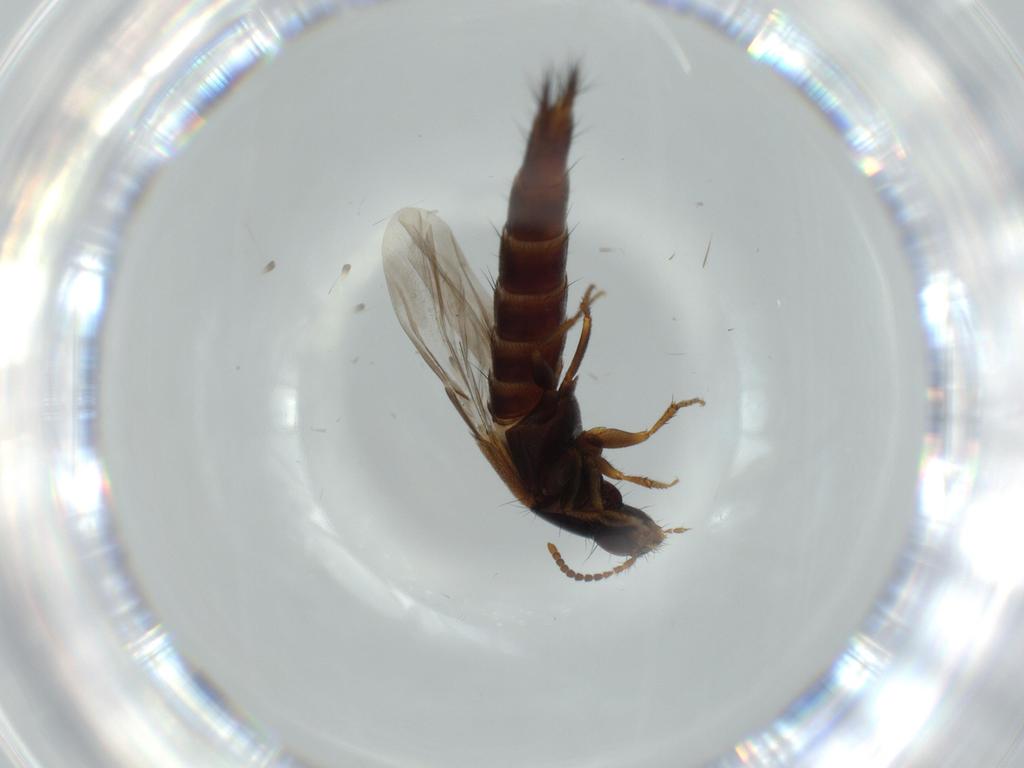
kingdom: Animalia
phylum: Arthropoda
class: Insecta
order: Coleoptera
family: Staphylinidae
